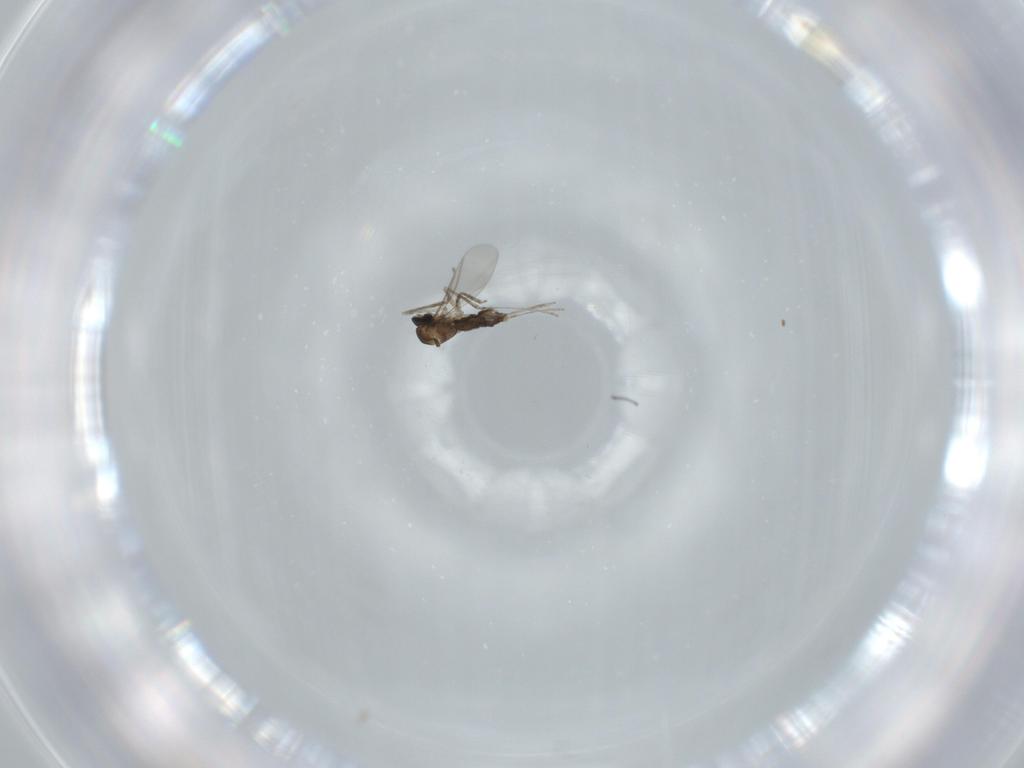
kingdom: Animalia
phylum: Arthropoda
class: Insecta
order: Diptera
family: Cecidomyiidae
